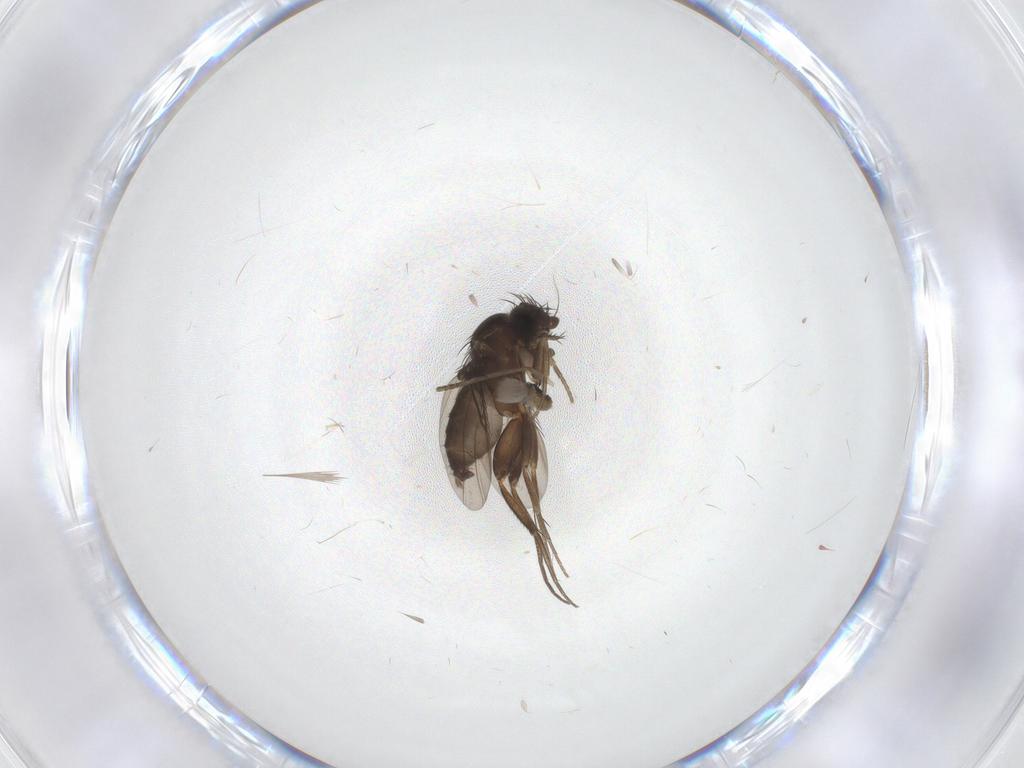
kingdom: Animalia
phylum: Arthropoda
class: Insecta
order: Diptera
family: Phoridae
